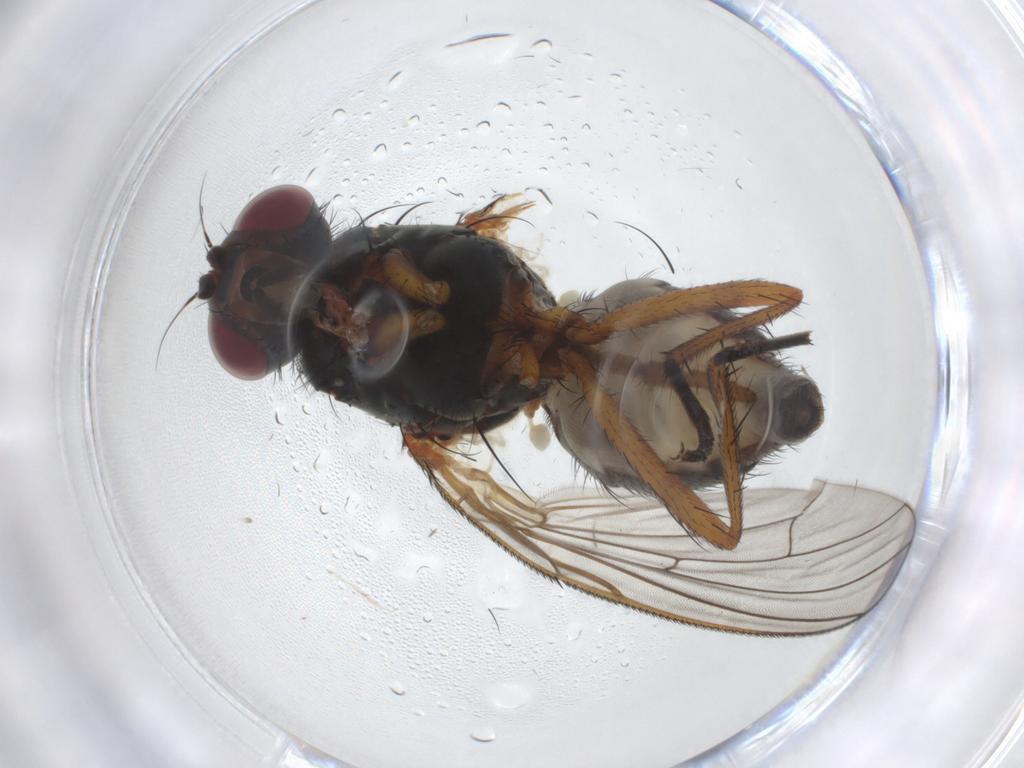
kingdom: Animalia
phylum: Arthropoda
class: Insecta
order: Diptera
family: Anthomyiidae
